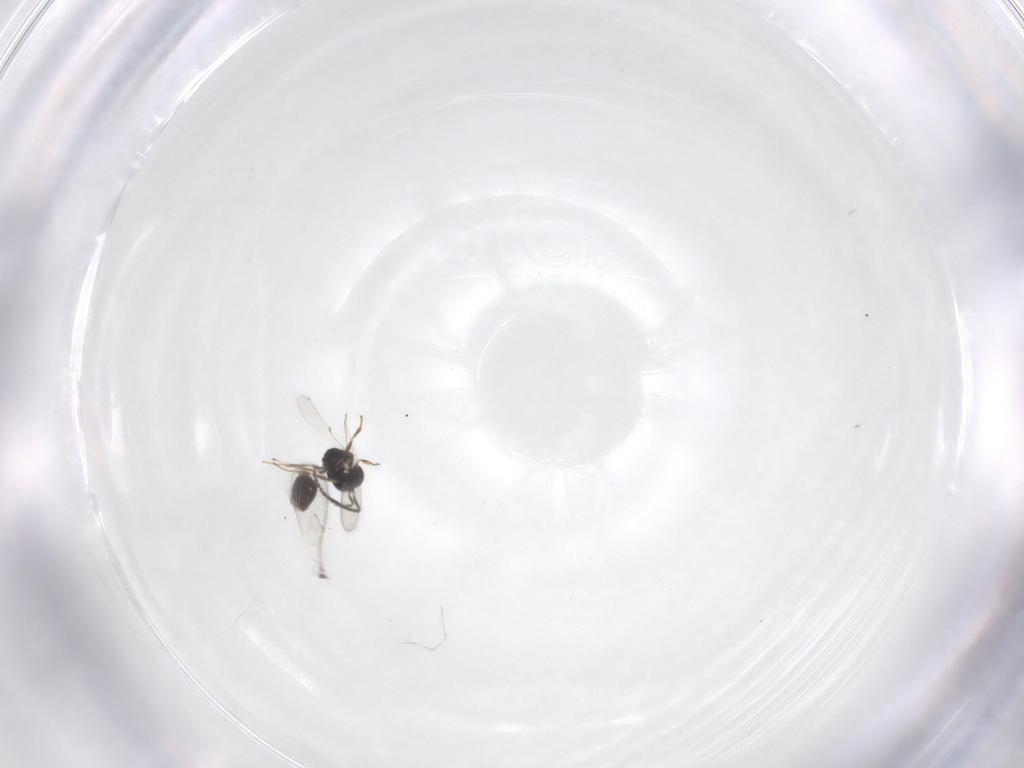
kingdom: Animalia
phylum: Arthropoda
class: Insecta
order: Hymenoptera
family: Scelionidae
